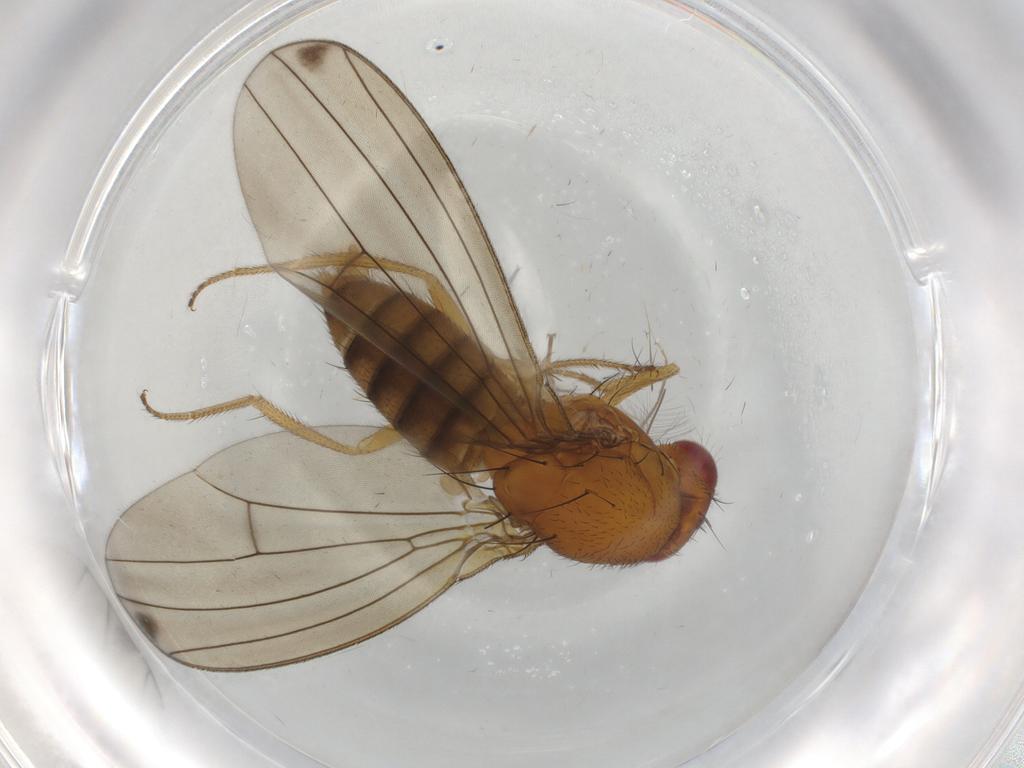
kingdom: Animalia
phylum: Arthropoda
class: Insecta
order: Diptera
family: Drosophilidae
